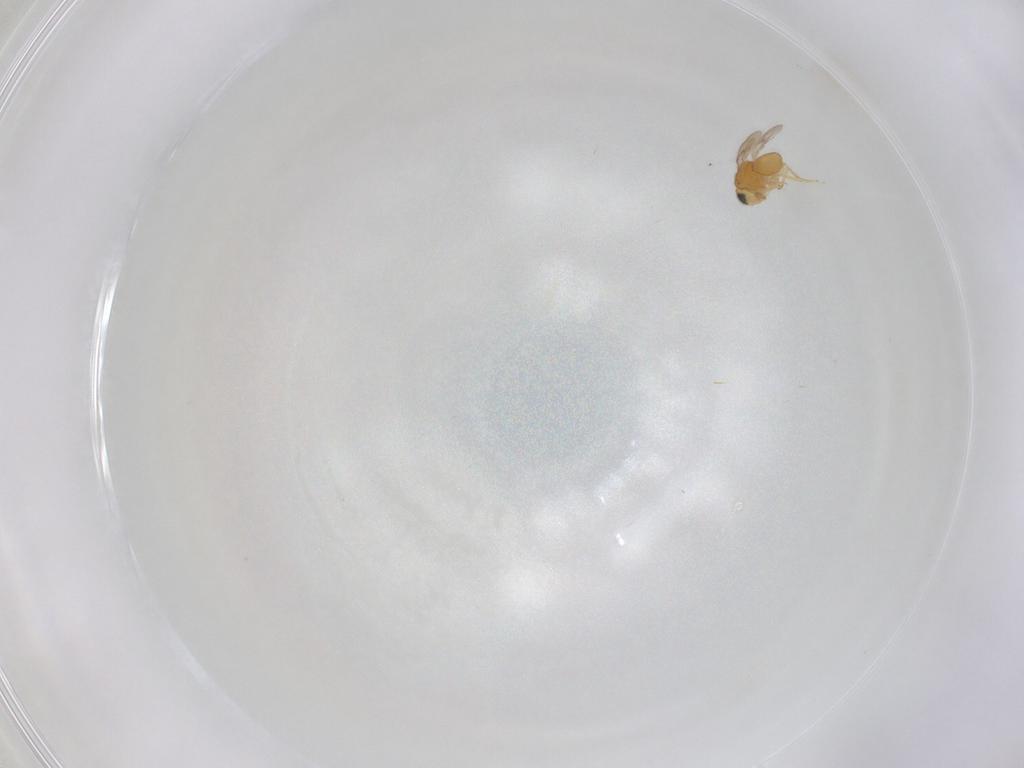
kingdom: Animalia
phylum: Arthropoda
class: Insecta
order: Hymenoptera
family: Scelionidae
